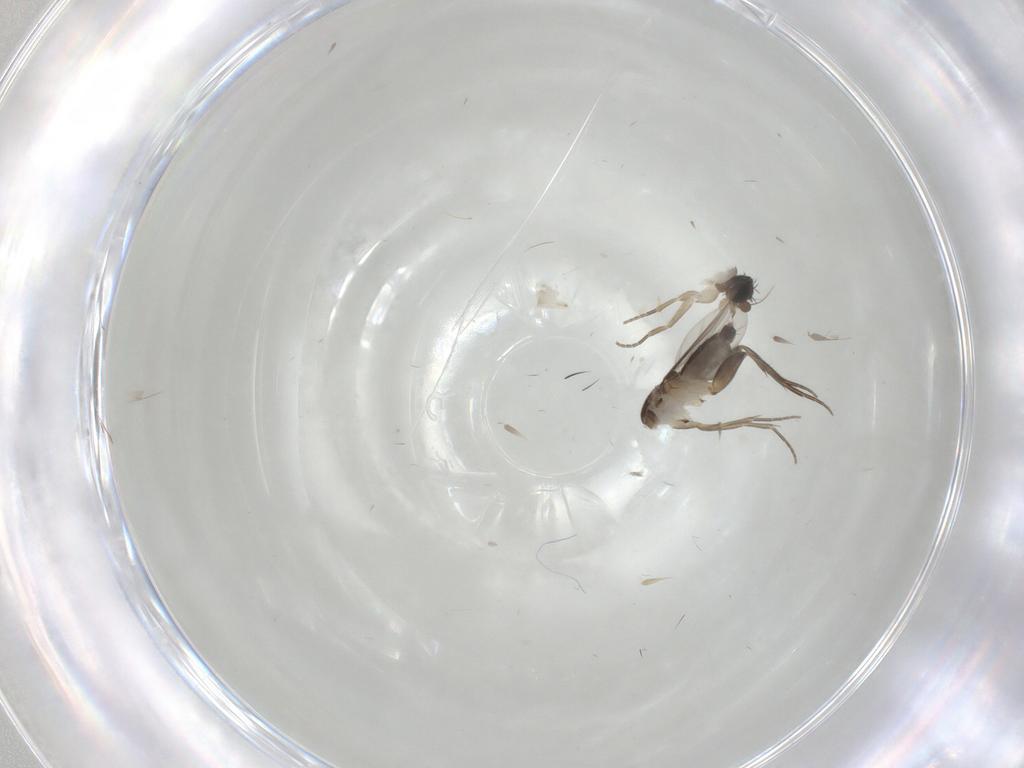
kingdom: Animalia
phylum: Arthropoda
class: Insecta
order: Diptera
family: Phoridae
